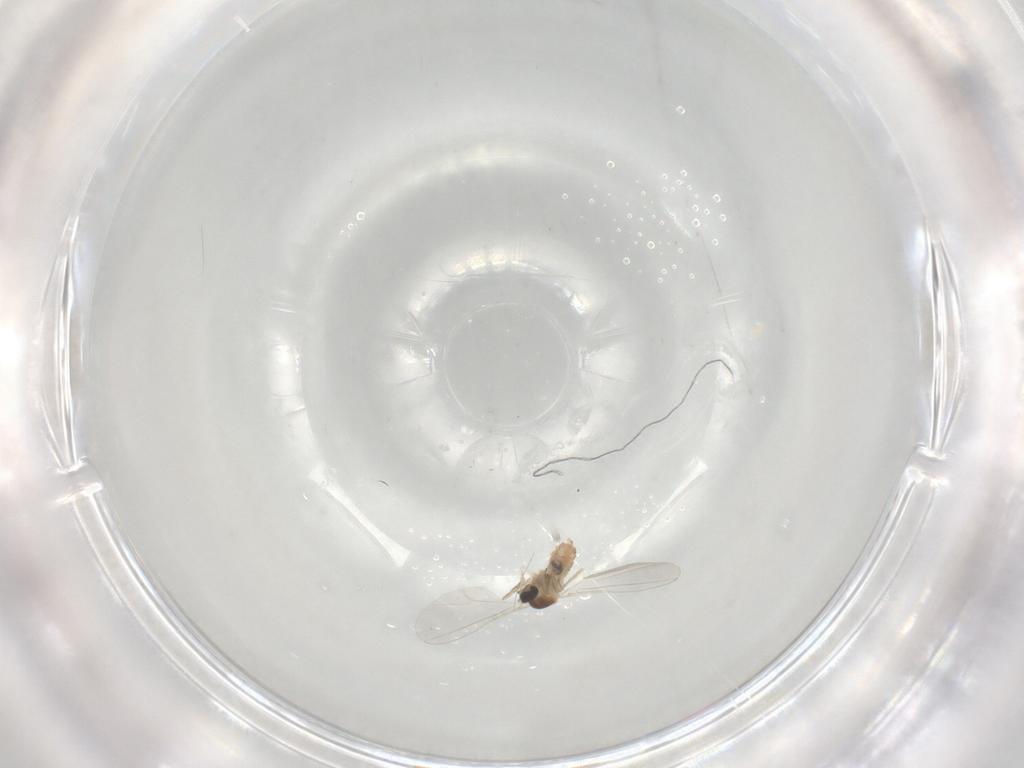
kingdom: Animalia
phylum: Arthropoda
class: Insecta
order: Diptera
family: Cecidomyiidae
